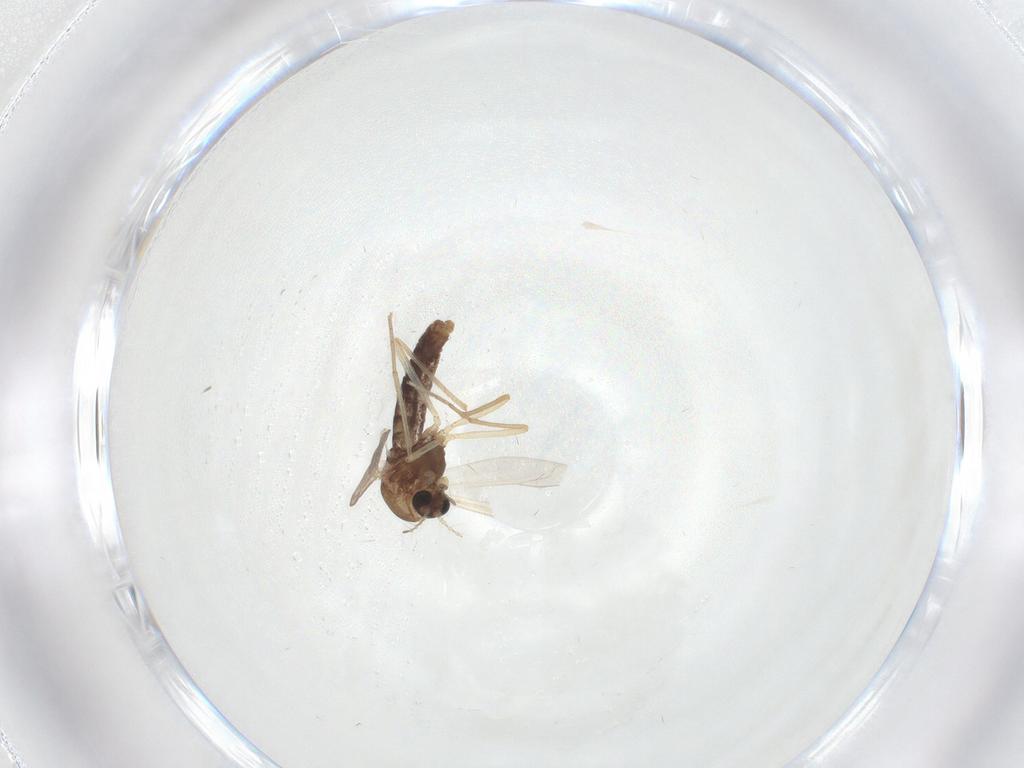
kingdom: Animalia
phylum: Arthropoda
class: Insecta
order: Diptera
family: Chironomidae
